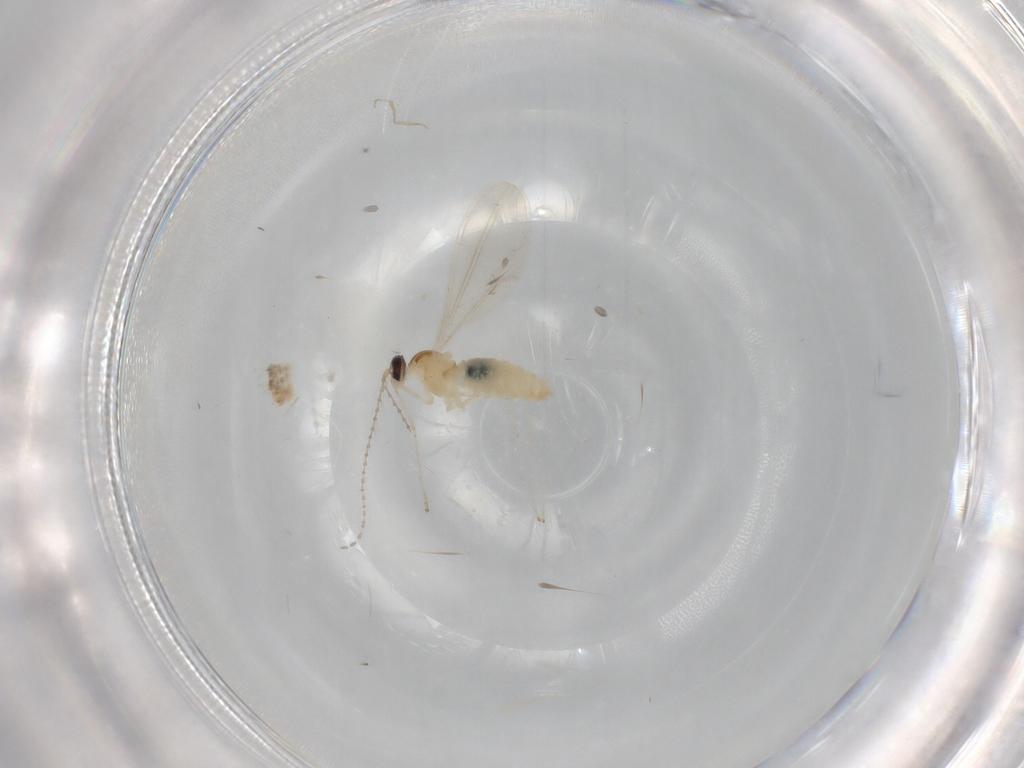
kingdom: Animalia
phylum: Arthropoda
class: Insecta
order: Diptera
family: Cecidomyiidae
